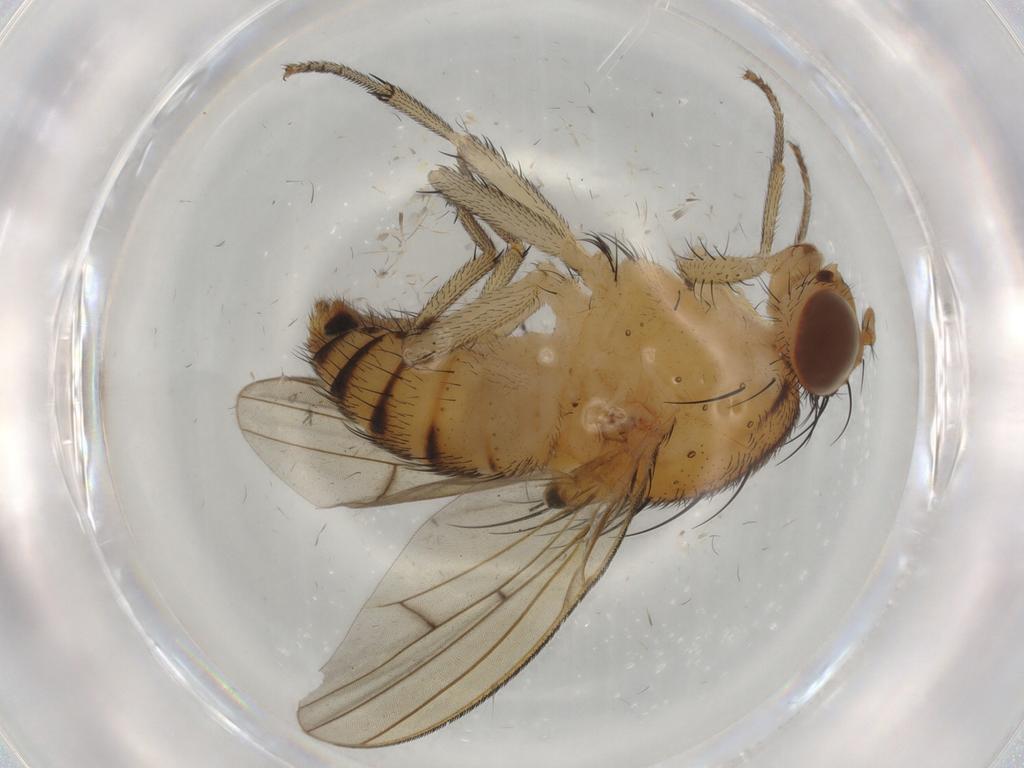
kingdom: Animalia
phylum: Arthropoda
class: Insecta
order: Diptera
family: Lauxaniidae
